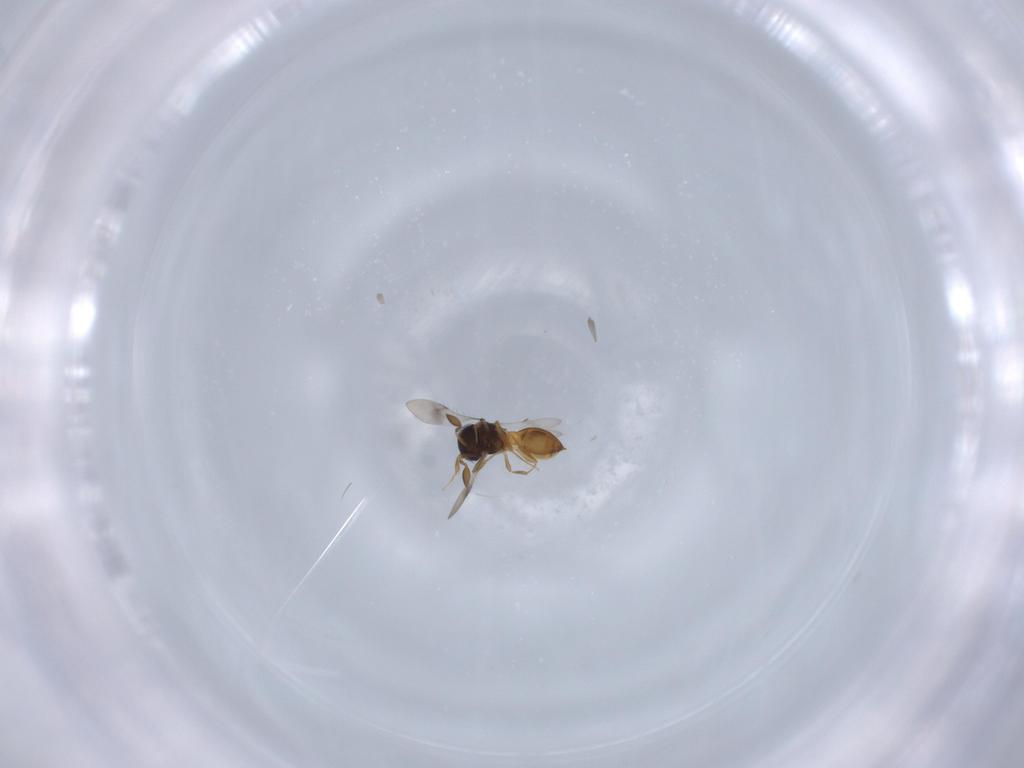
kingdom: Animalia
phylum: Arthropoda
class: Insecta
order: Hymenoptera
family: Scelionidae
